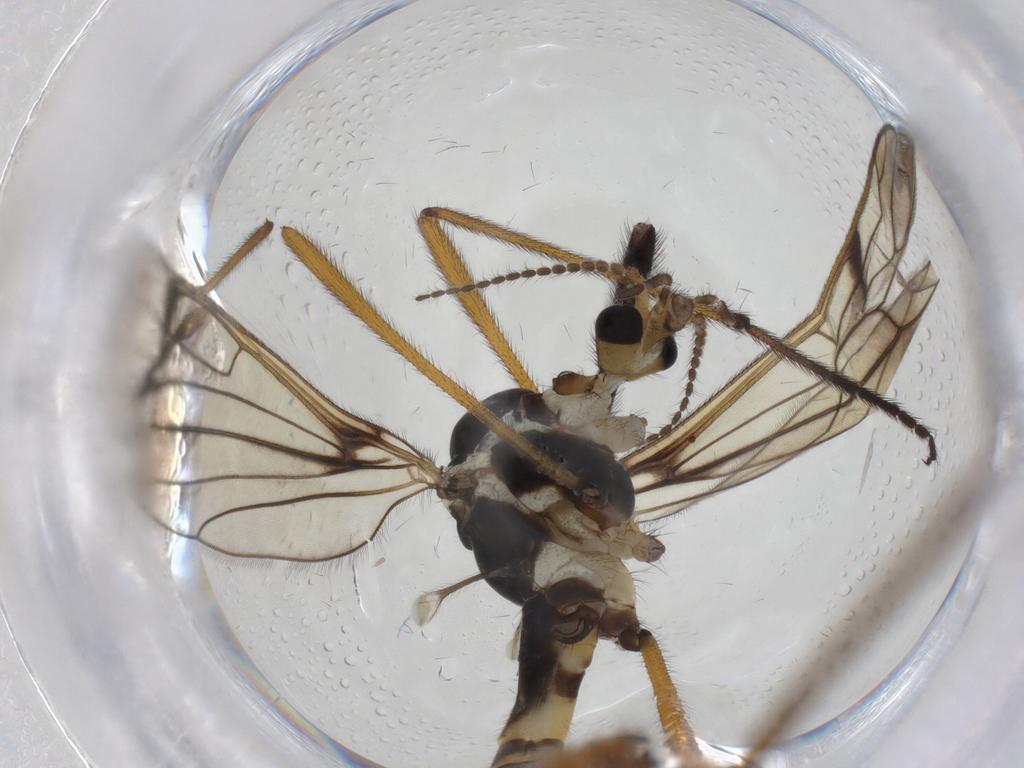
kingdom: Animalia
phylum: Arthropoda
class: Insecta
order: Diptera
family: Limoniidae
